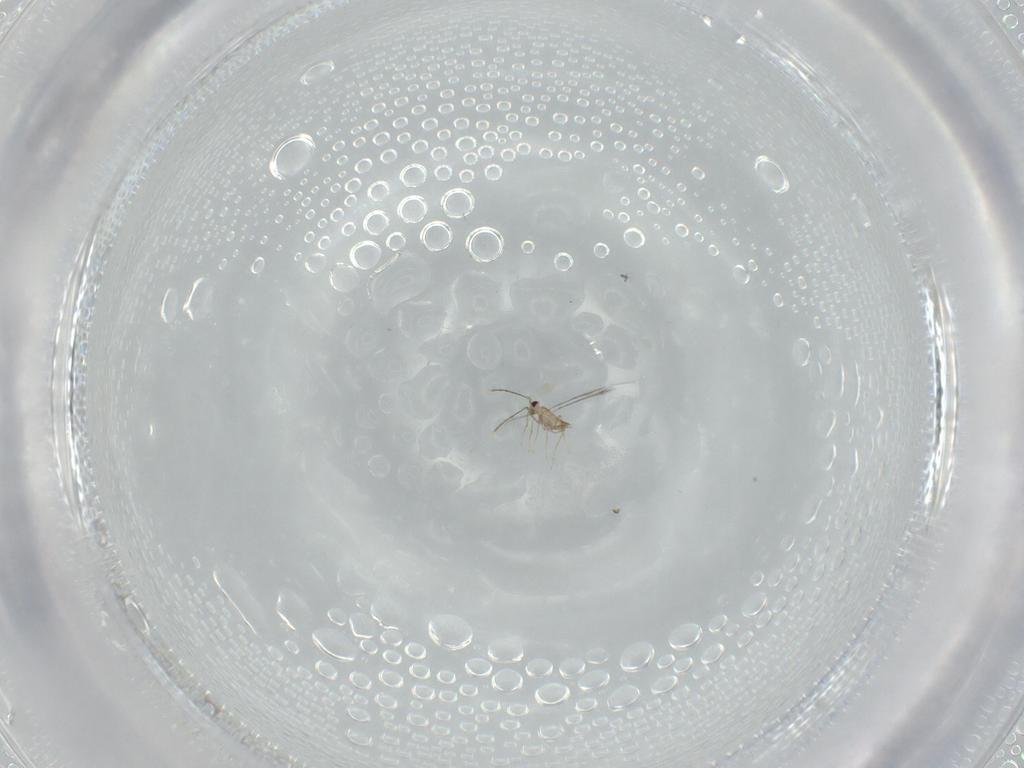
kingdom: Animalia
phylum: Arthropoda
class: Insecta
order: Hymenoptera
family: Mymaridae
